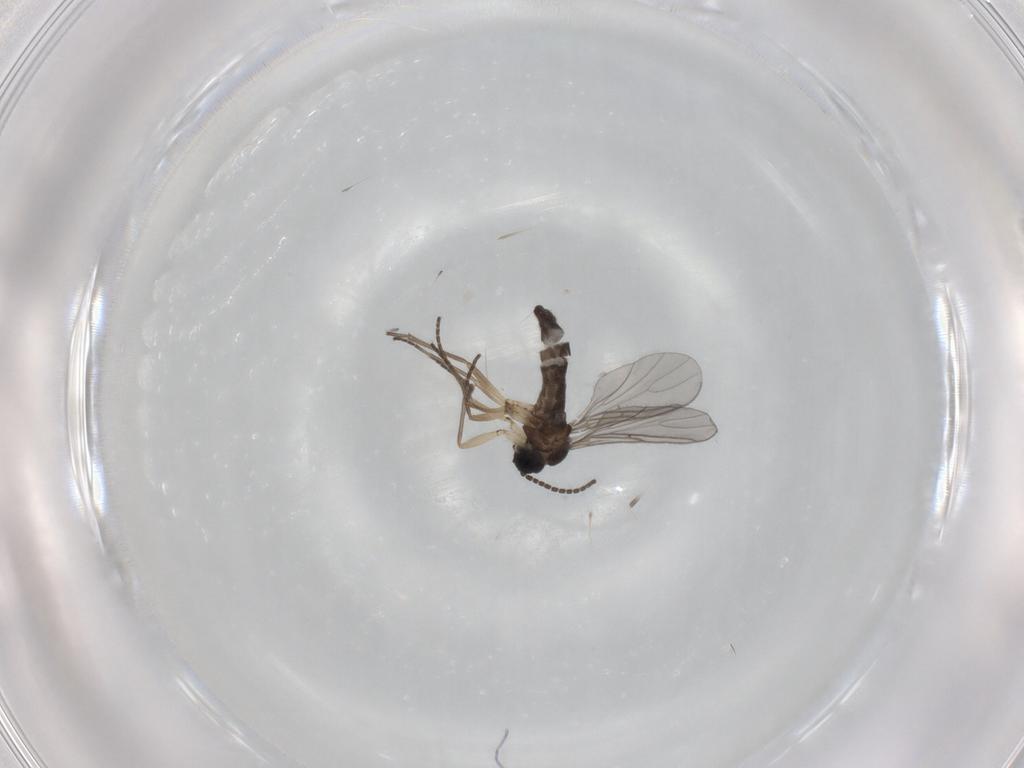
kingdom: Animalia
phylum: Arthropoda
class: Insecta
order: Diptera
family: Sciaridae
